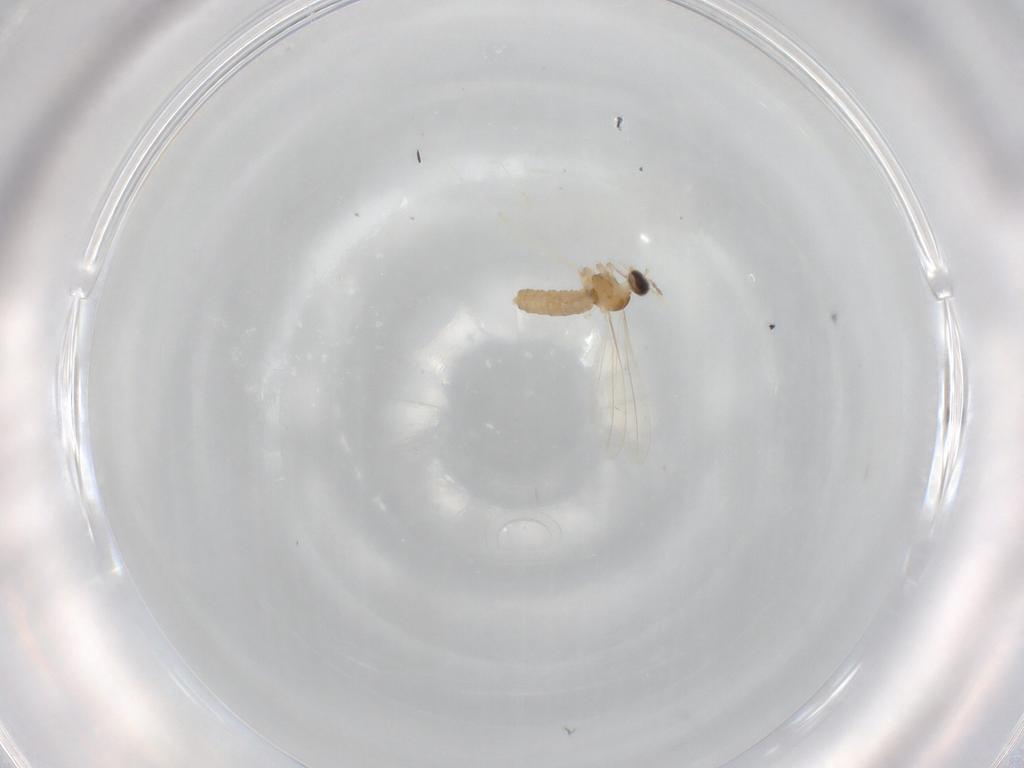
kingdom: Animalia
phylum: Arthropoda
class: Insecta
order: Diptera
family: Cecidomyiidae
